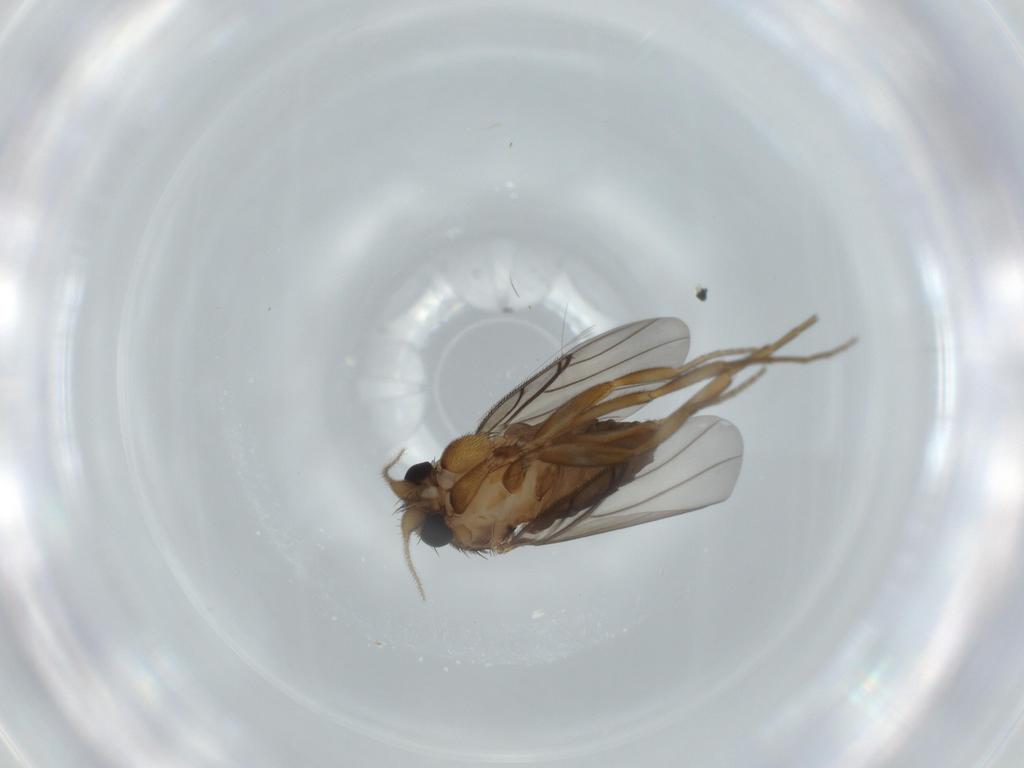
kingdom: Animalia
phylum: Arthropoda
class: Insecta
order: Diptera
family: Phoridae
